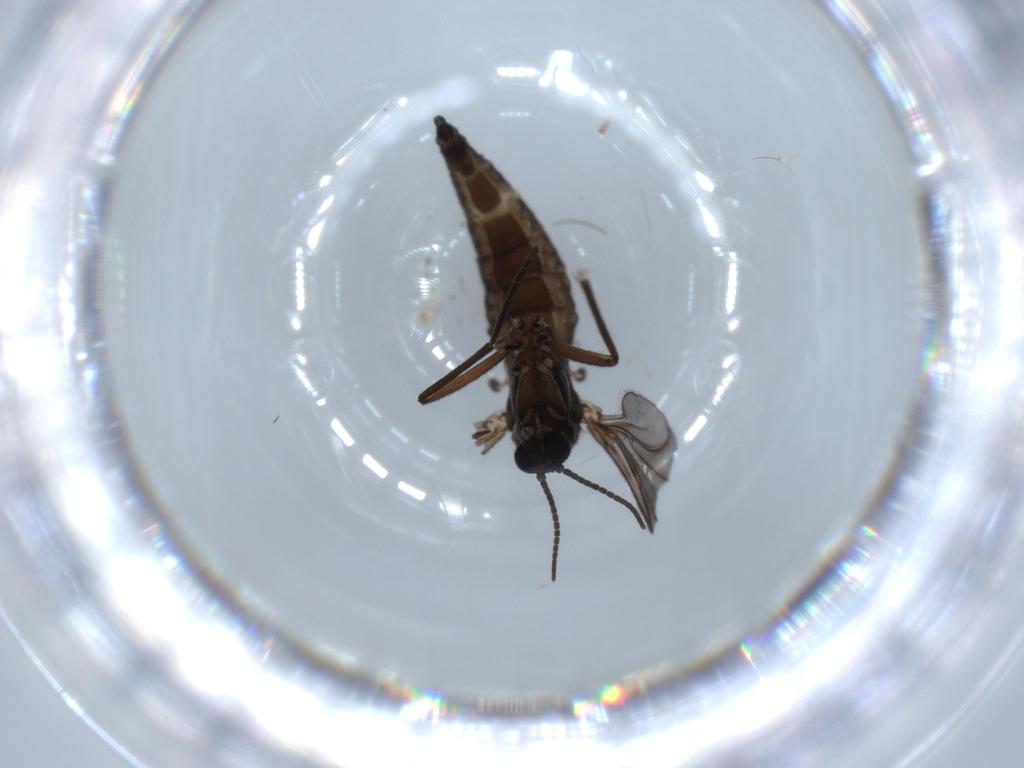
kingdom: Animalia
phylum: Arthropoda
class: Insecta
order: Diptera
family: Sciaridae
